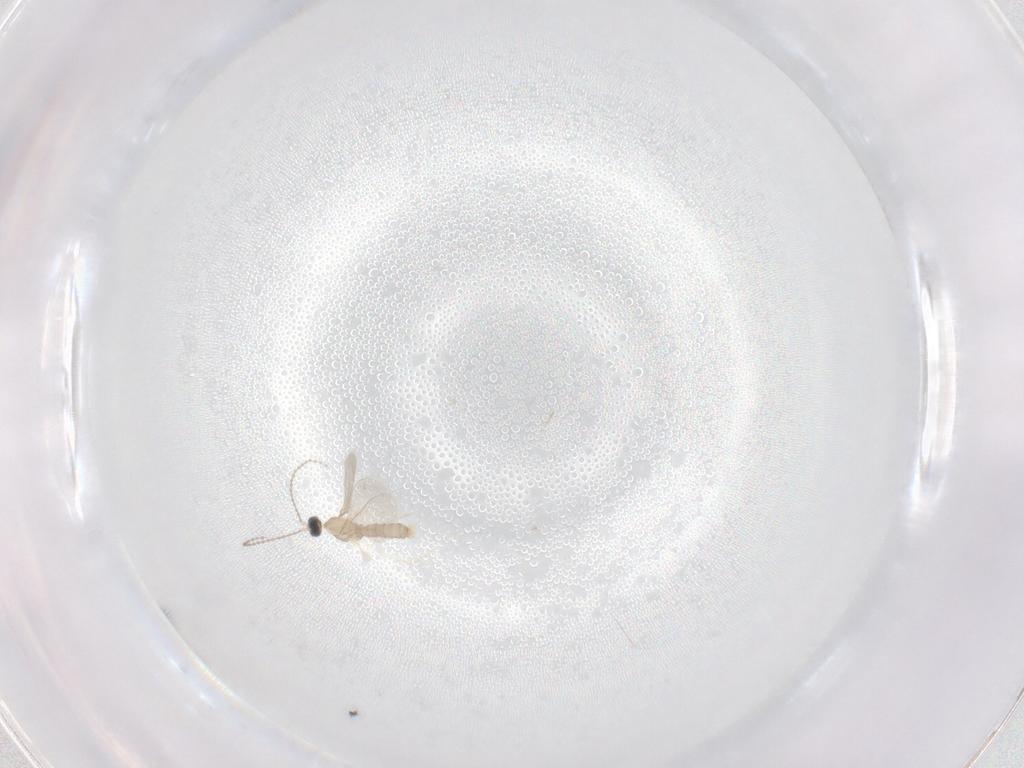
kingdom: Animalia
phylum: Arthropoda
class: Insecta
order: Diptera
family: Cecidomyiidae
